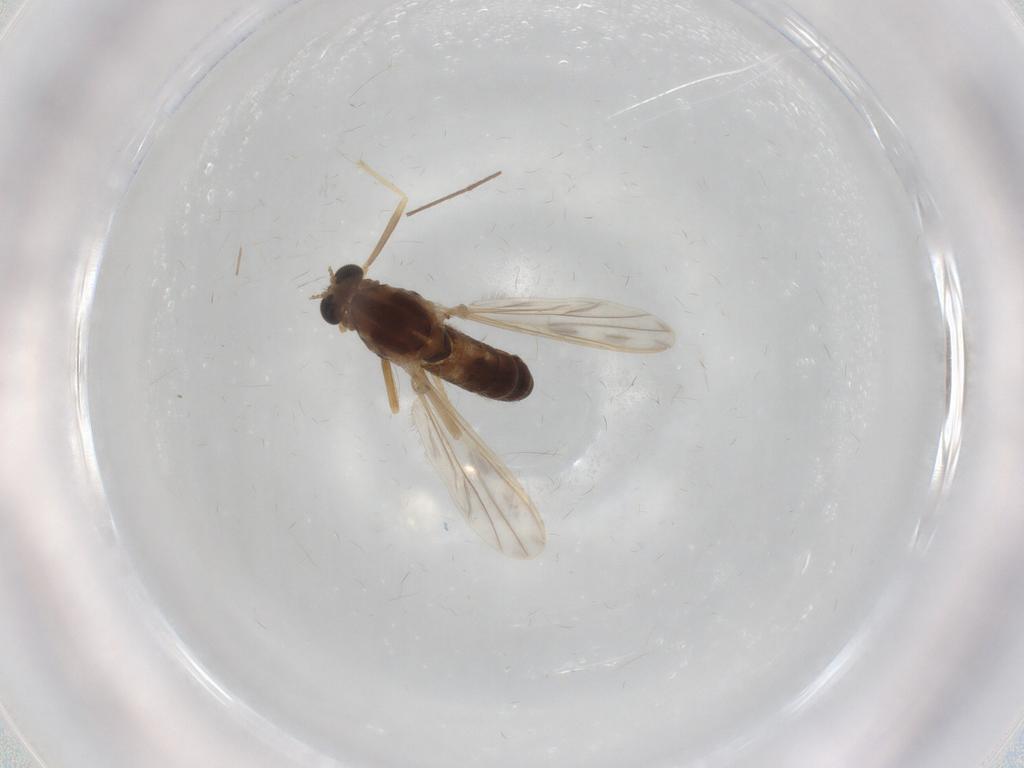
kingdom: Animalia
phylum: Arthropoda
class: Insecta
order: Diptera
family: Chironomidae
